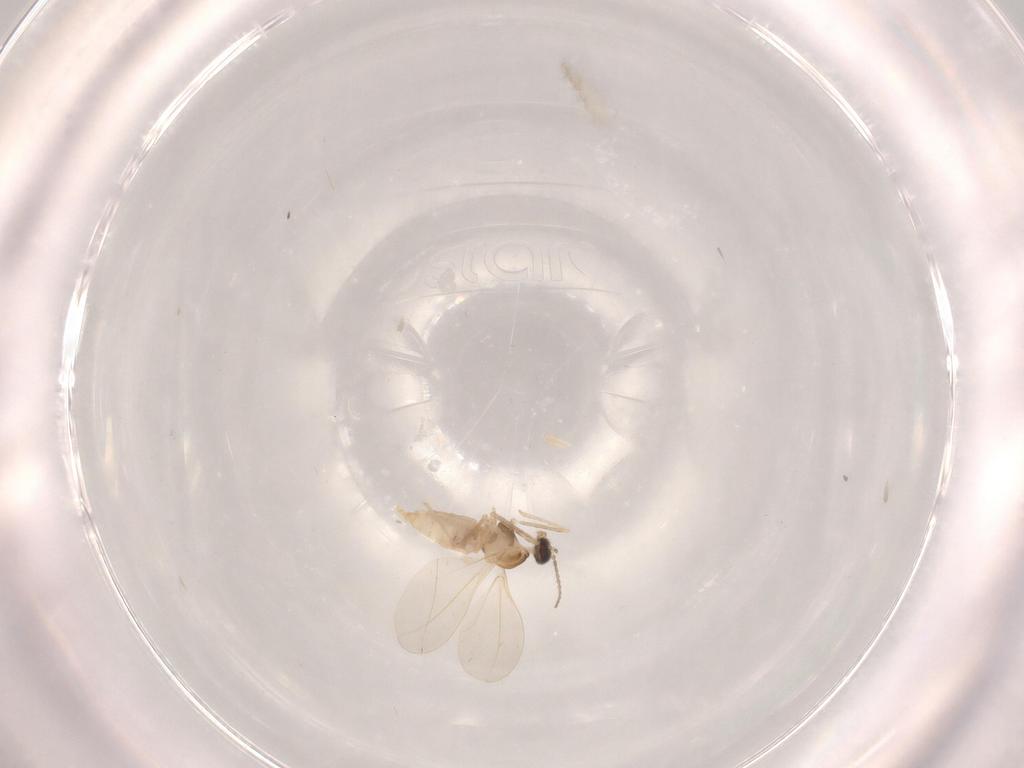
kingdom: Animalia
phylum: Arthropoda
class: Insecta
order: Diptera
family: Cecidomyiidae
